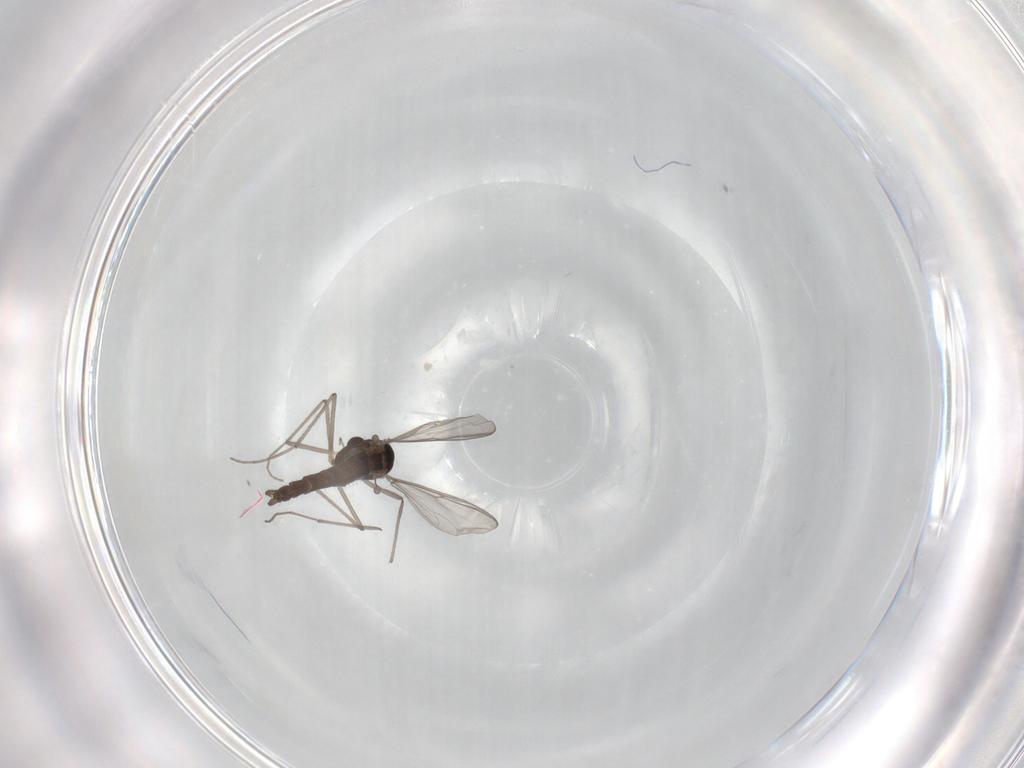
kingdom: Animalia
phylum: Arthropoda
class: Insecta
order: Diptera
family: Chironomidae
